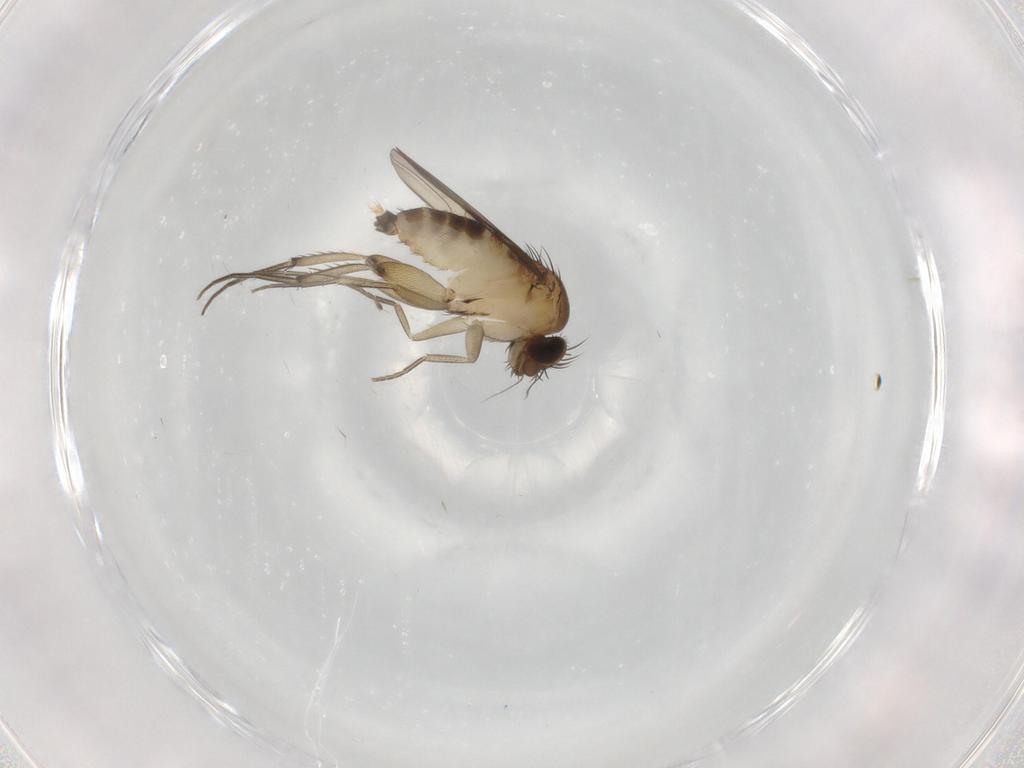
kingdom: Animalia
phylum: Arthropoda
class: Insecta
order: Diptera
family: Phoridae
